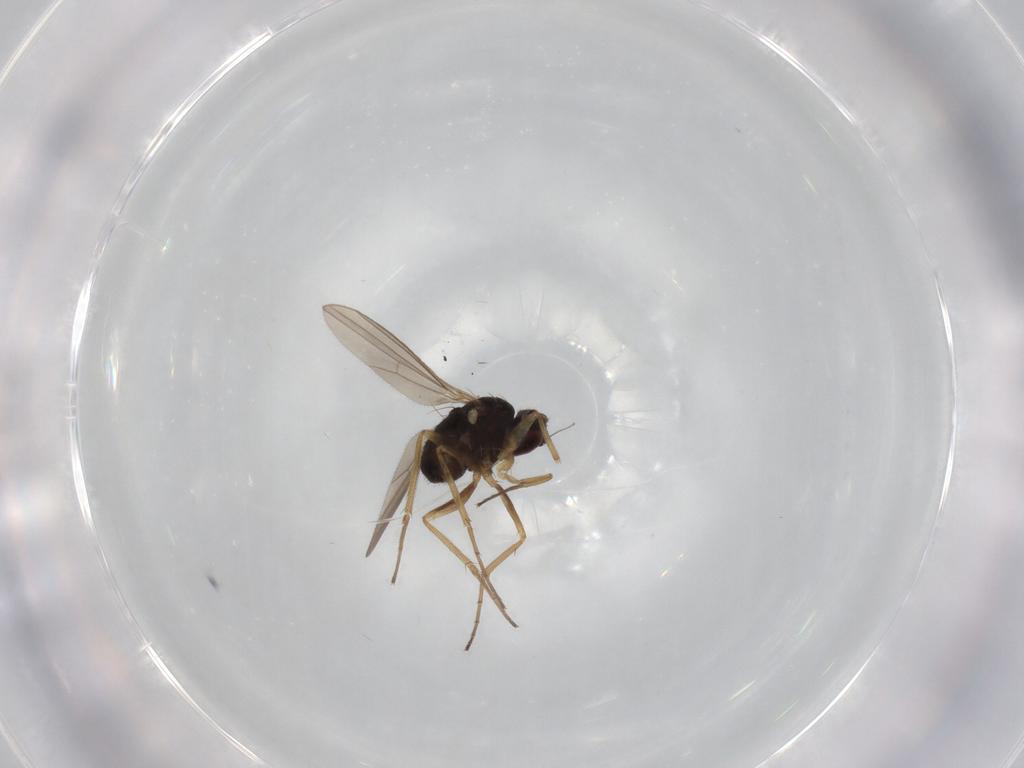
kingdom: Animalia
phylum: Arthropoda
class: Insecta
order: Diptera
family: Dolichopodidae
